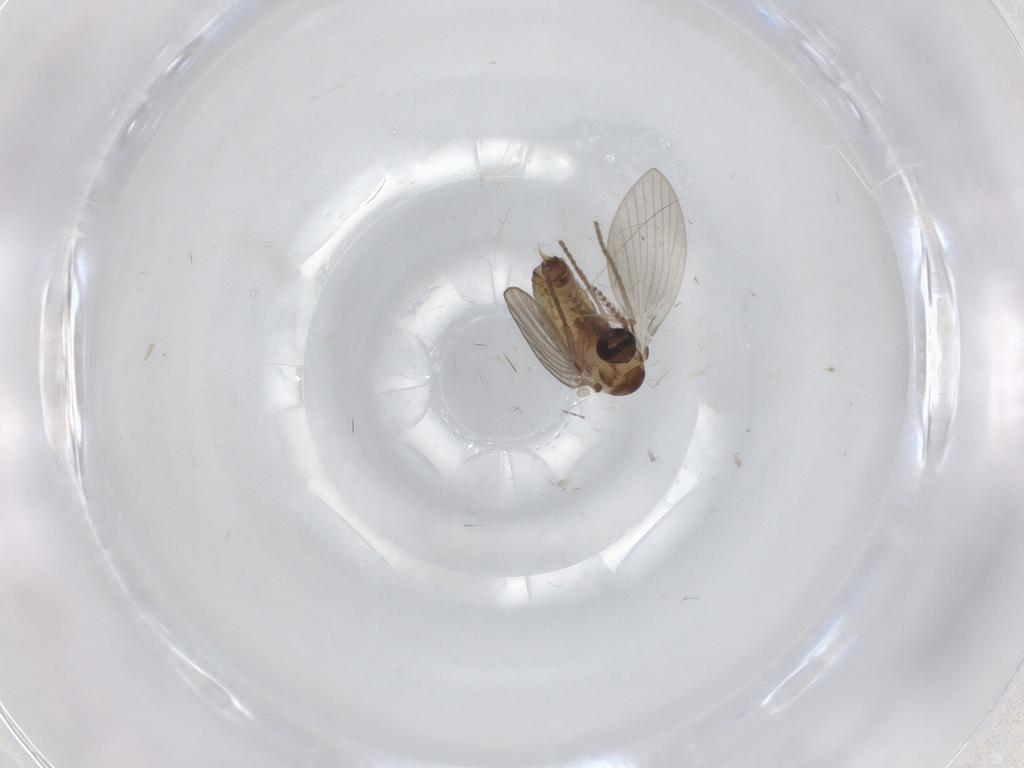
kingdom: Animalia
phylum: Arthropoda
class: Insecta
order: Diptera
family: Psychodidae
